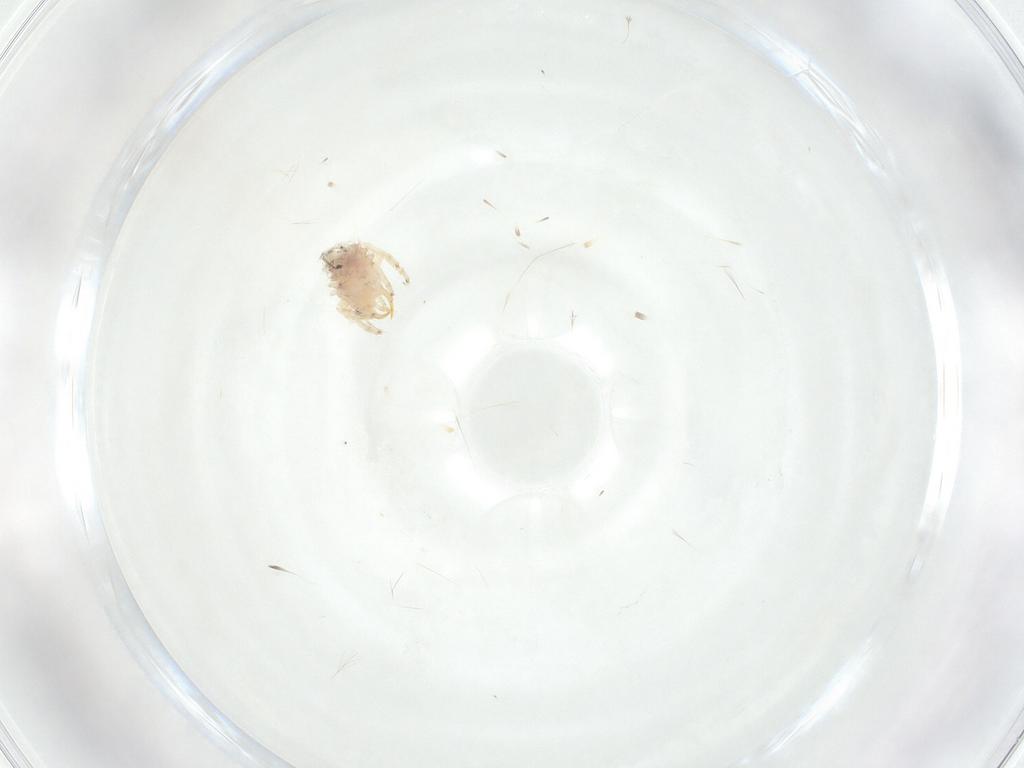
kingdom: Animalia
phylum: Arthropoda
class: Insecta
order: Neuroptera
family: Chrysopidae
